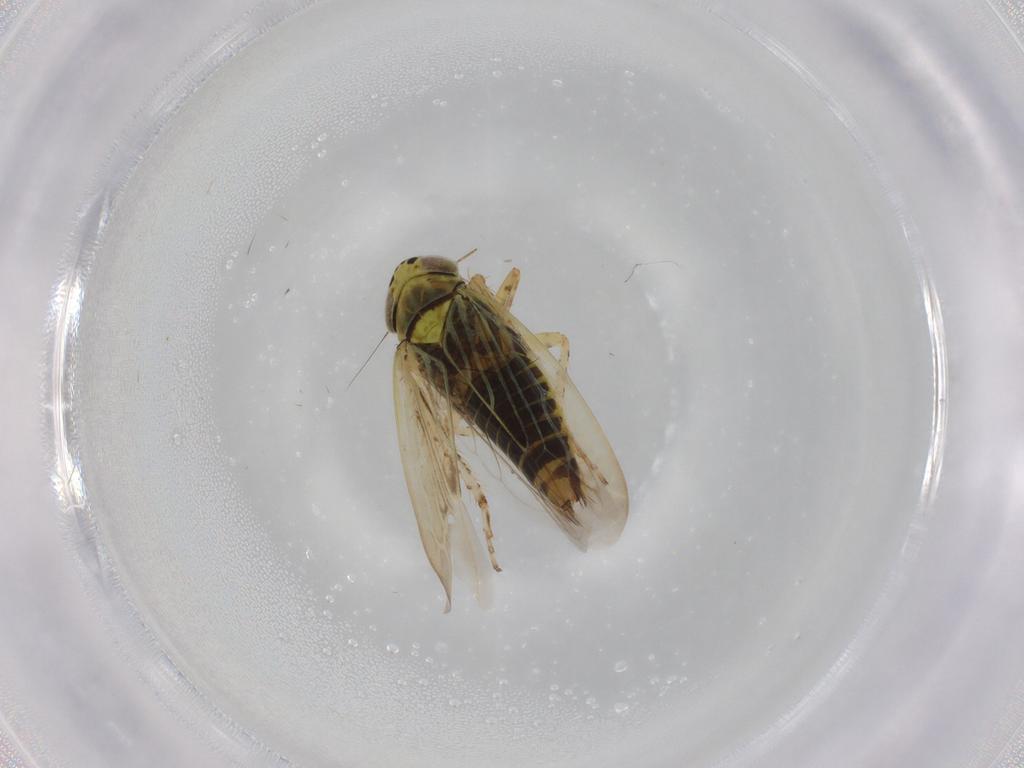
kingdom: Animalia
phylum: Arthropoda
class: Insecta
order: Hemiptera
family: Cicadellidae
